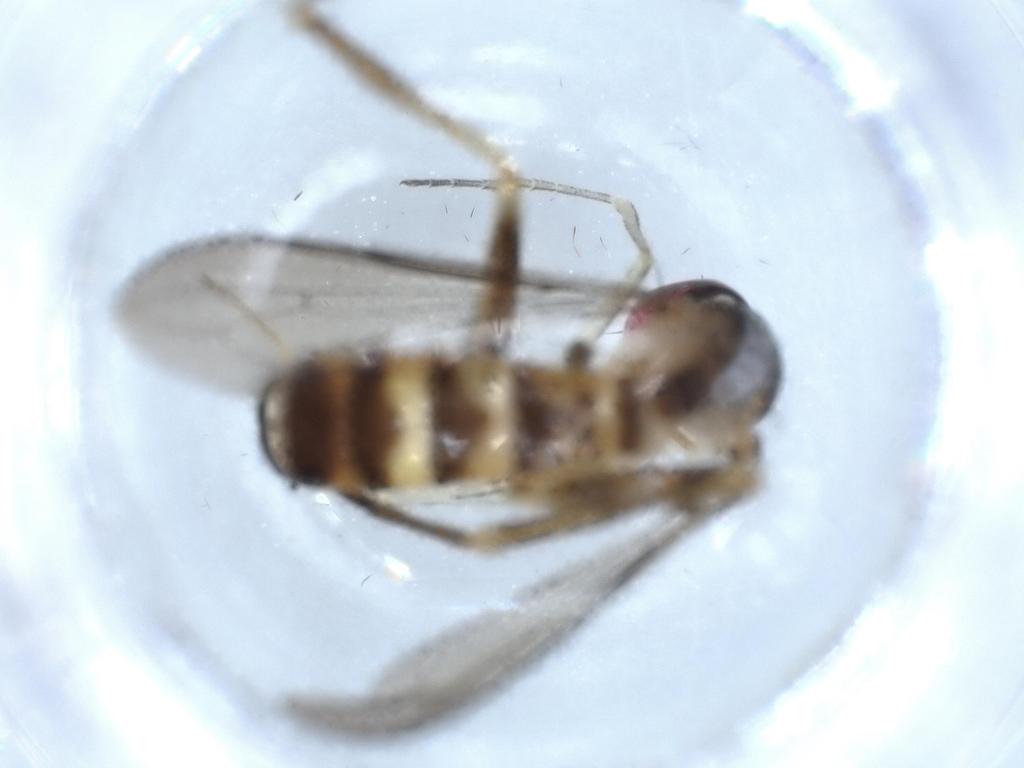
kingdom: Animalia
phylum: Arthropoda
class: Insecta
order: Diptera
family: Conopidae
